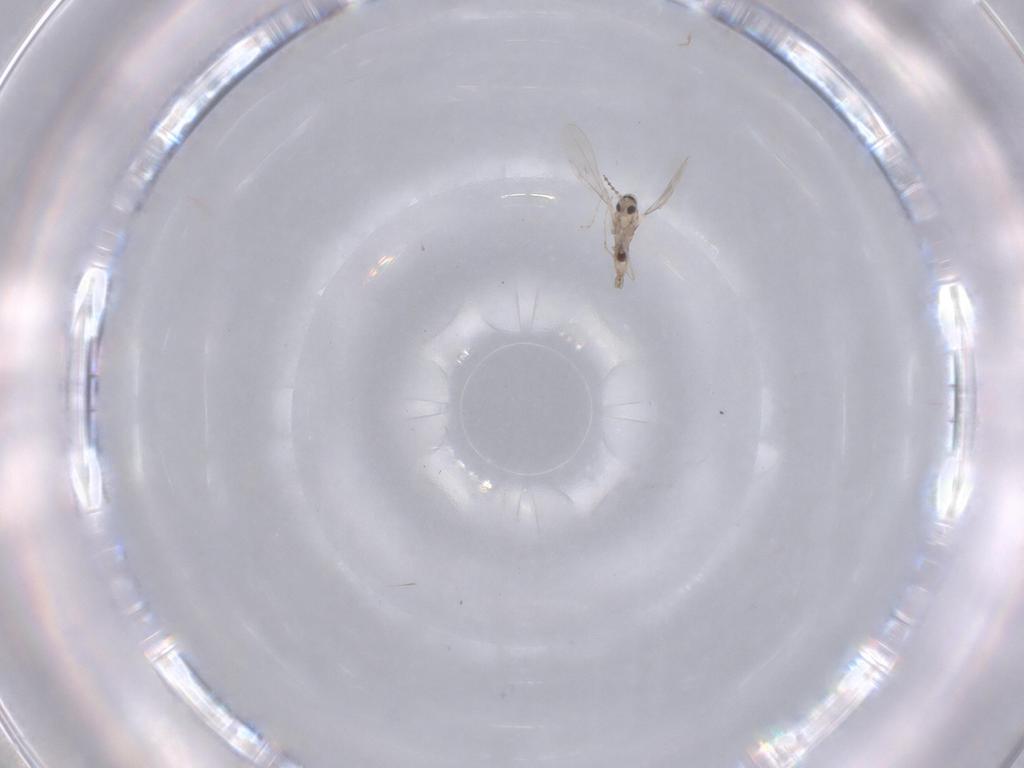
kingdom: Animalia
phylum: Arthropoda
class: Insecta
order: Diptera
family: Cecidomyiidae
